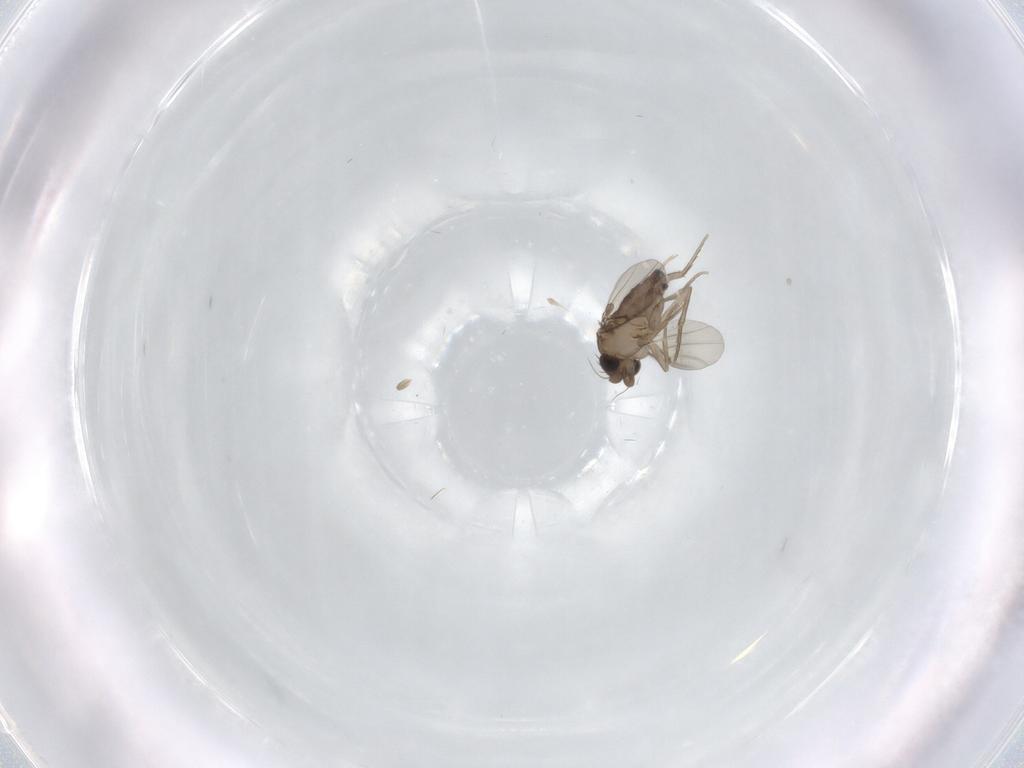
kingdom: Animalia
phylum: Arthropoda
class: Insecta
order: Diptera
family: Phoridae
